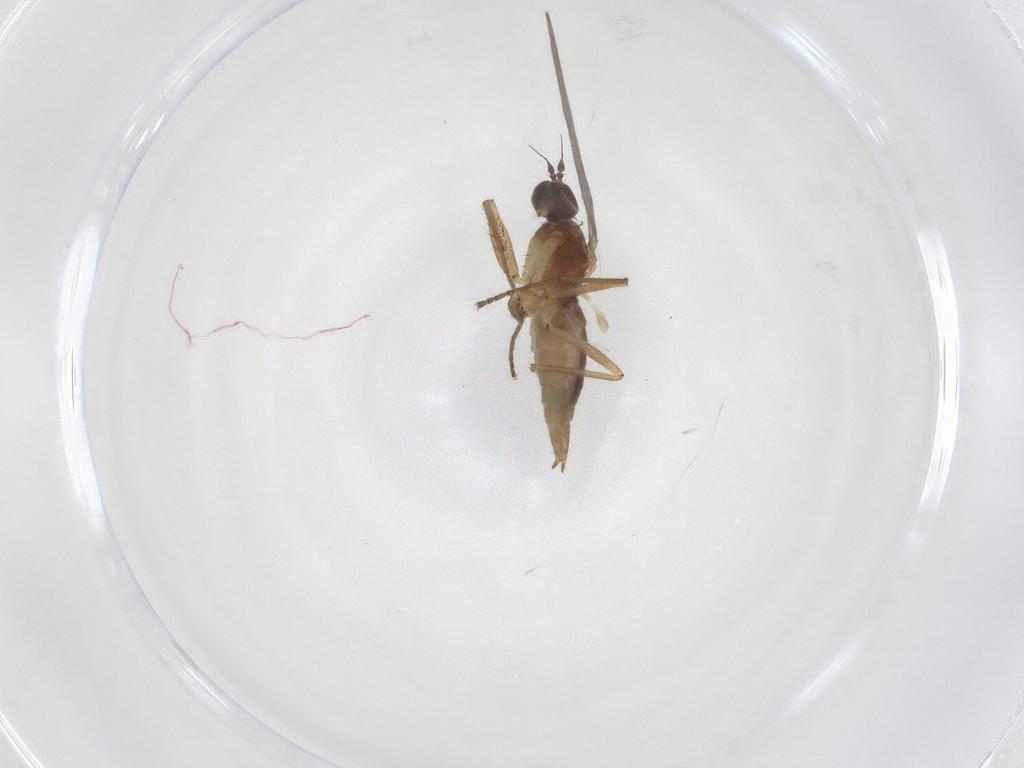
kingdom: Animalia
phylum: Arthropoda
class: Insecta
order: Diptera
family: Empididae
